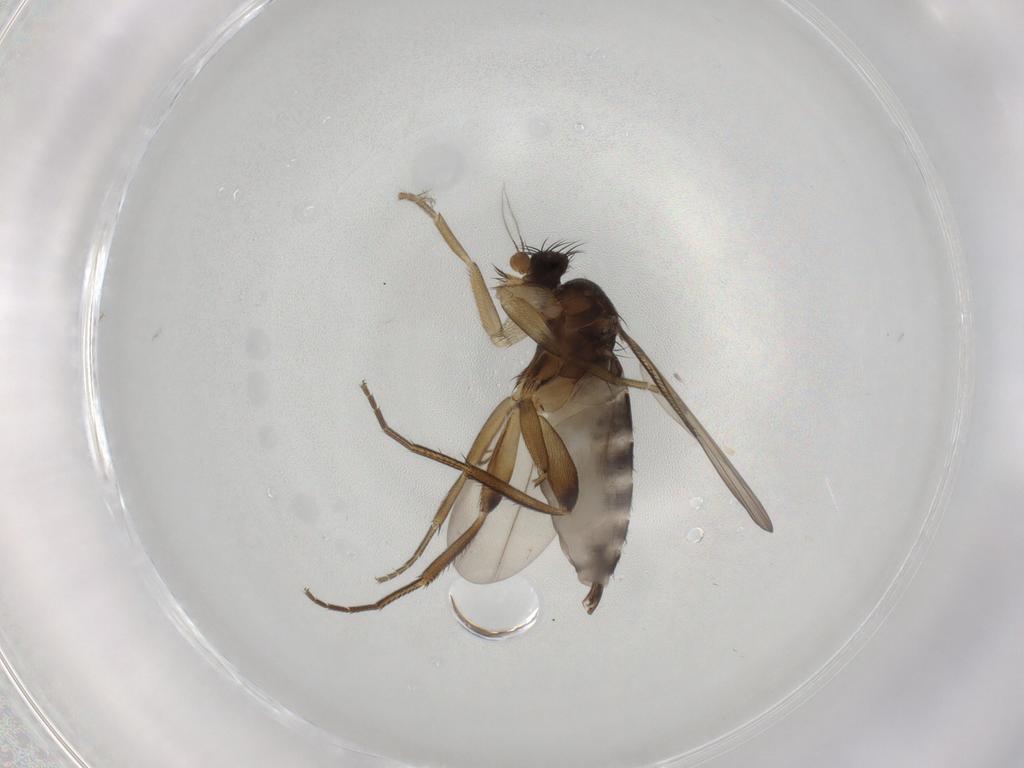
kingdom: Animalia
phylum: Arthropoda
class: Insecta
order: Diptera
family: Phoridae
